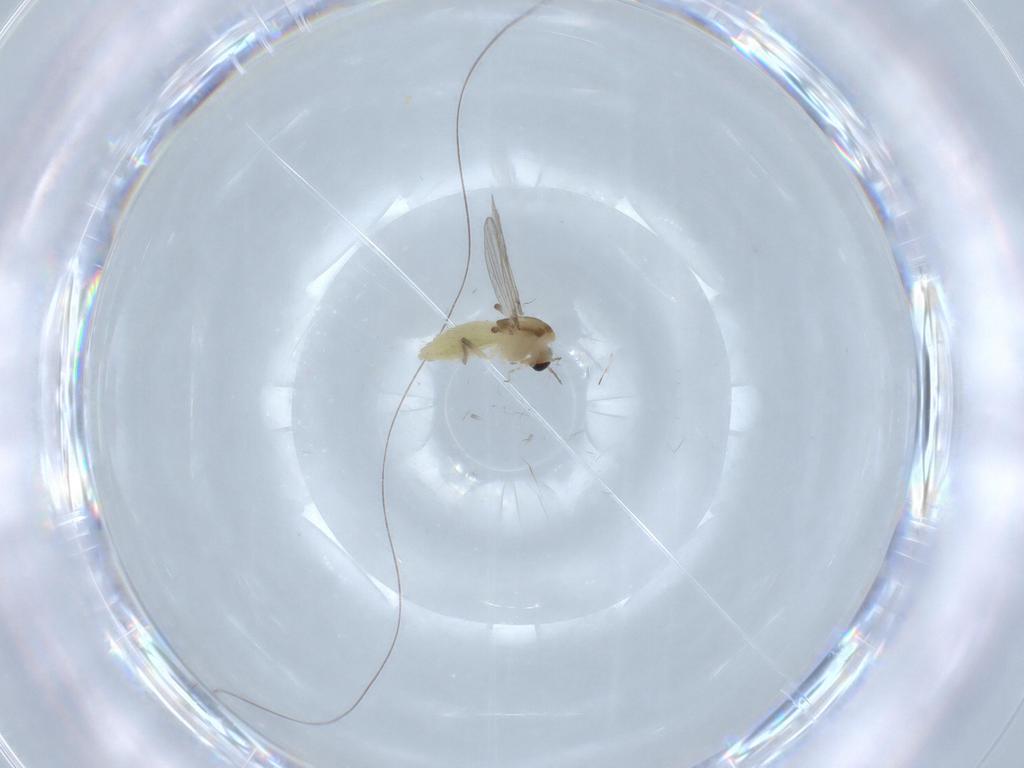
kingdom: Animalia
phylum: Arthropoda
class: Insecta
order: Diptera
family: Chironomidae
